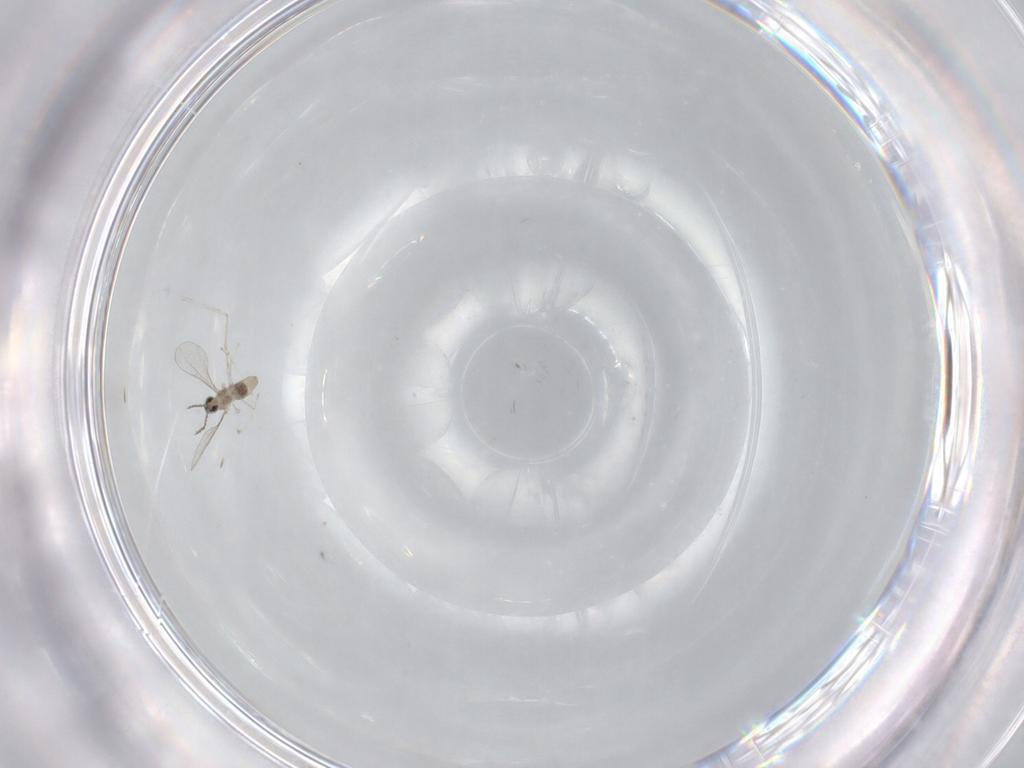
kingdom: Animalia
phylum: Arthropoda
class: Insecta
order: Diptera
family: Cecidomyiidae
